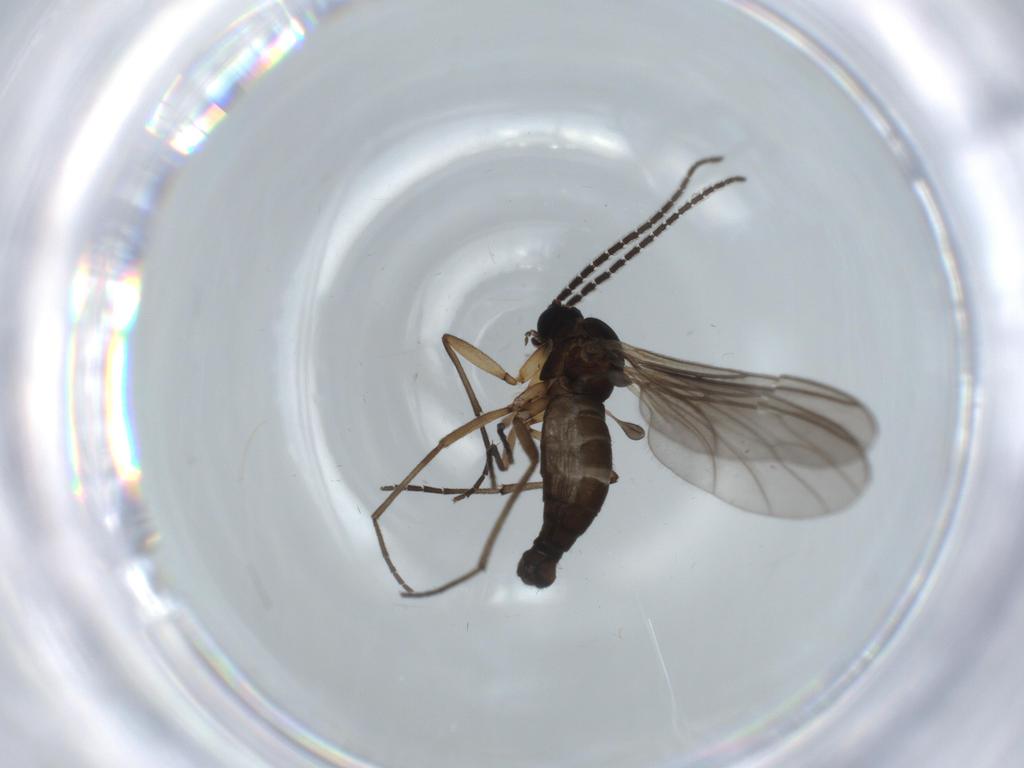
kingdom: Animalia
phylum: Arthropoda
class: Insecta
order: Diptera
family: Sciaridae
